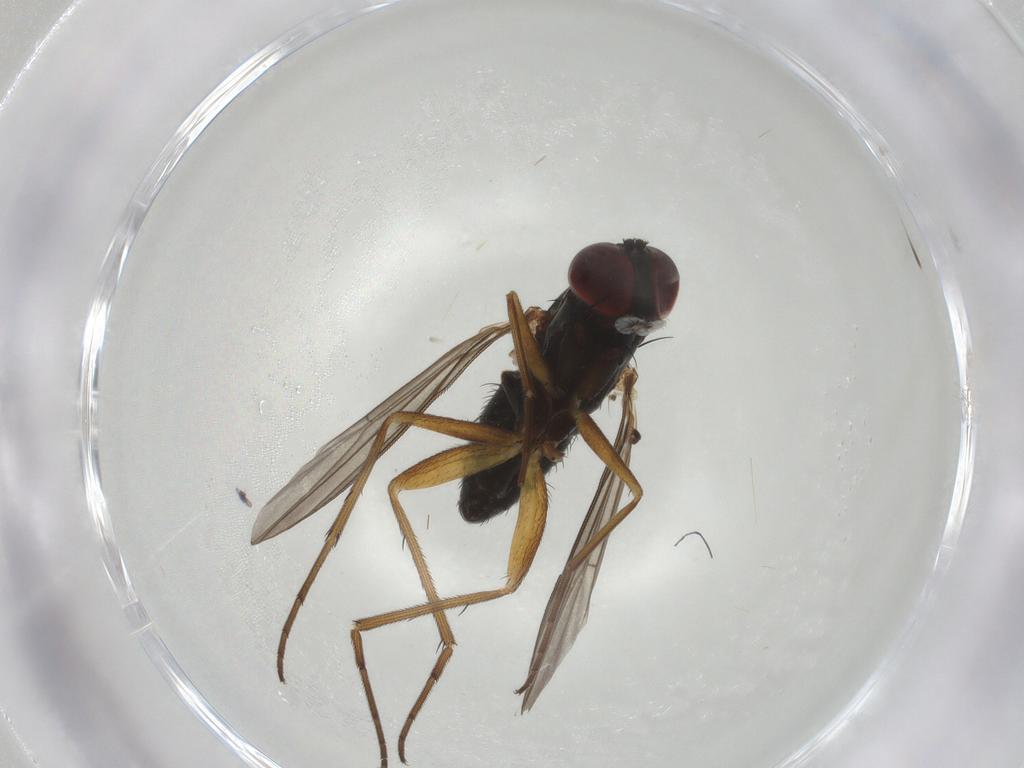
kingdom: Animalia
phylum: Arthropoda
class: Insecta
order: Diptera
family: Dolichopodidae
